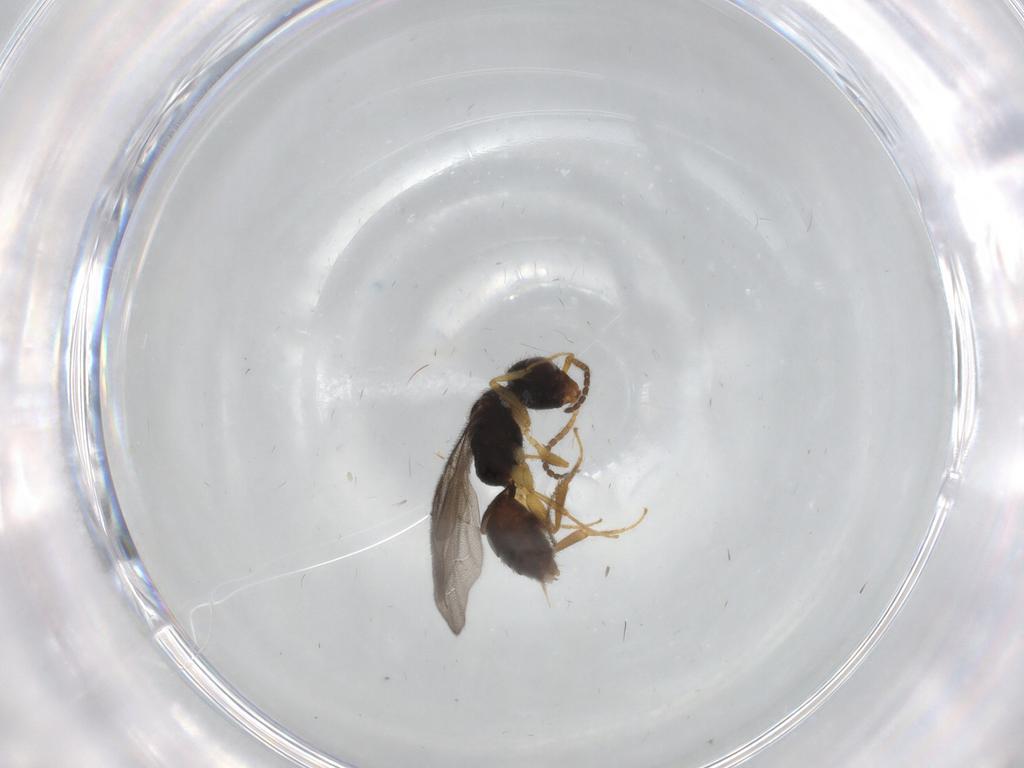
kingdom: Animalia
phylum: Arthropoda
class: Insecta
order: Hymenoptera
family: Bethylidae
